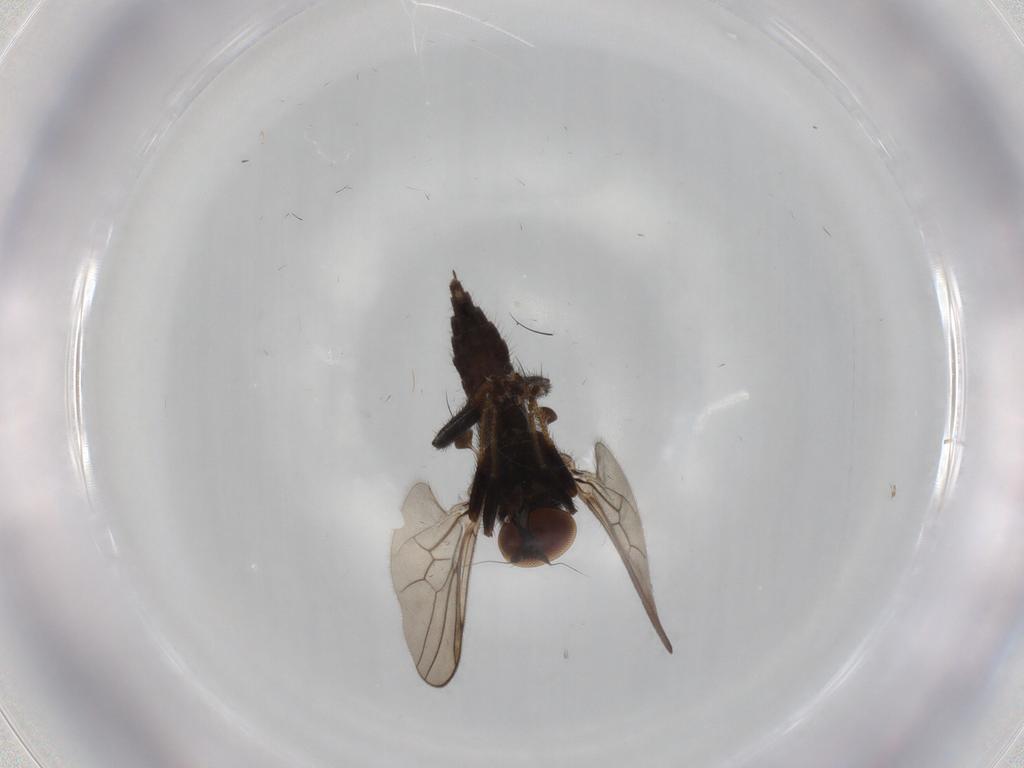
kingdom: Animalia
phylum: Arthropoda
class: Insecta
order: Diptera
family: Hybotidae
